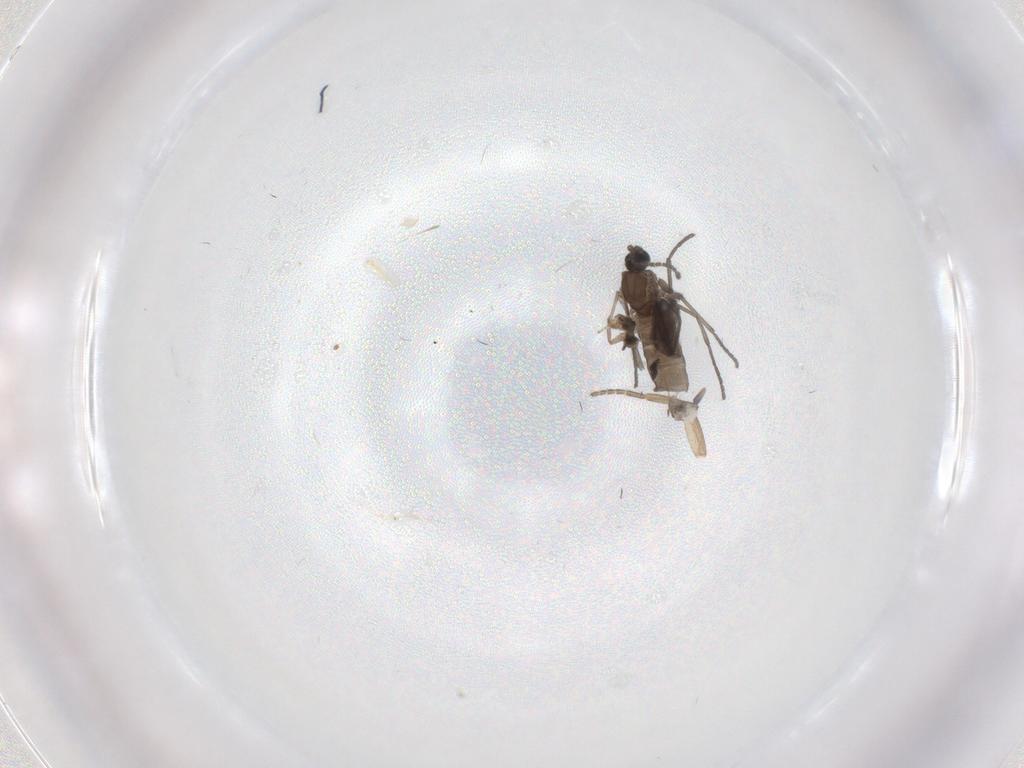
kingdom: Animalia
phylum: Arthropoda
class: Insecta
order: Diptera
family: Sciaridae
